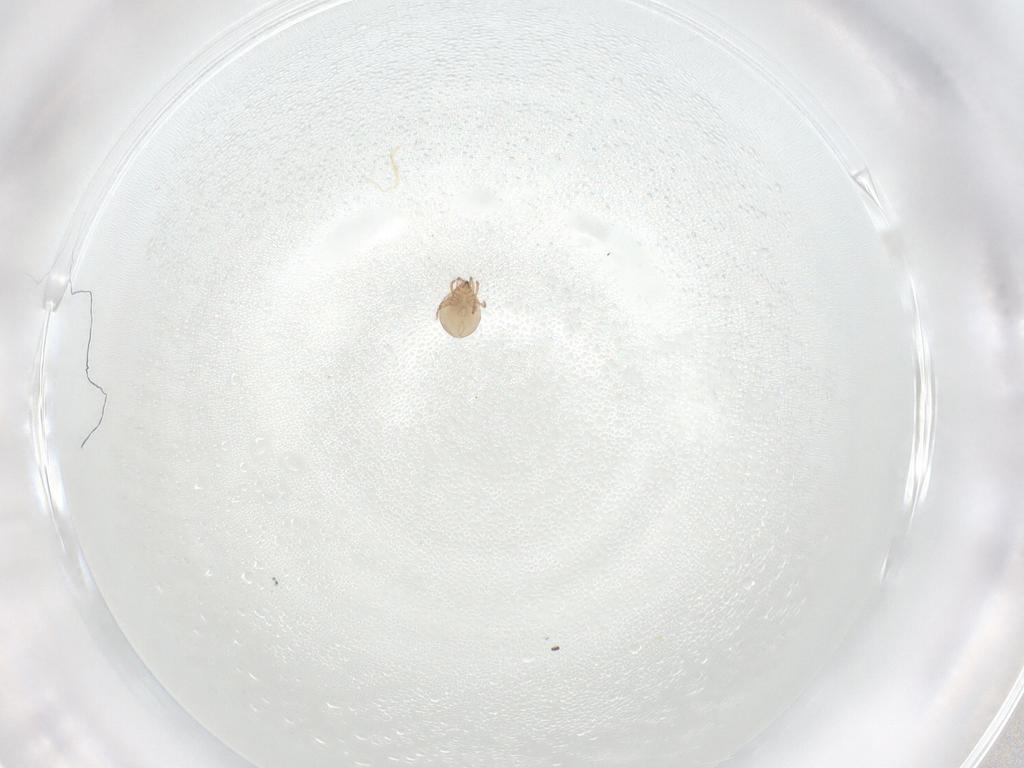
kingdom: Animalia
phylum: Arthropoda
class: Arachnida
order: Sarcoptiformes
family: Galumnidae
